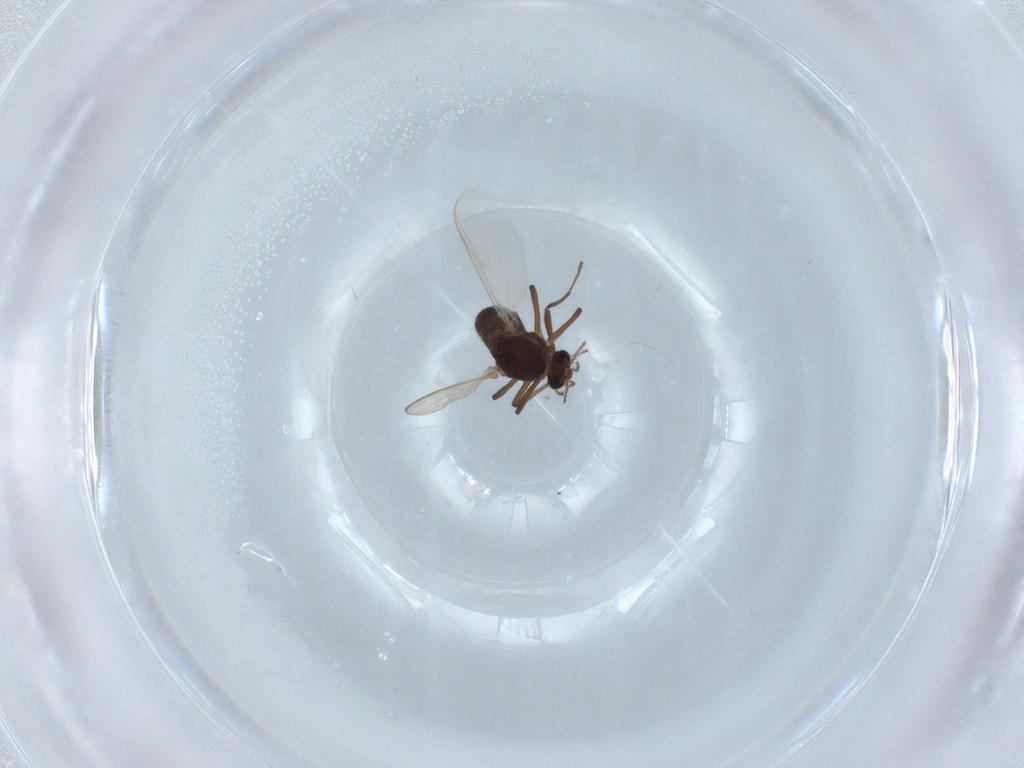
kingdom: Animalia
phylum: Arthropoda
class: Insecta
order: Diptera
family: Chironomidae
